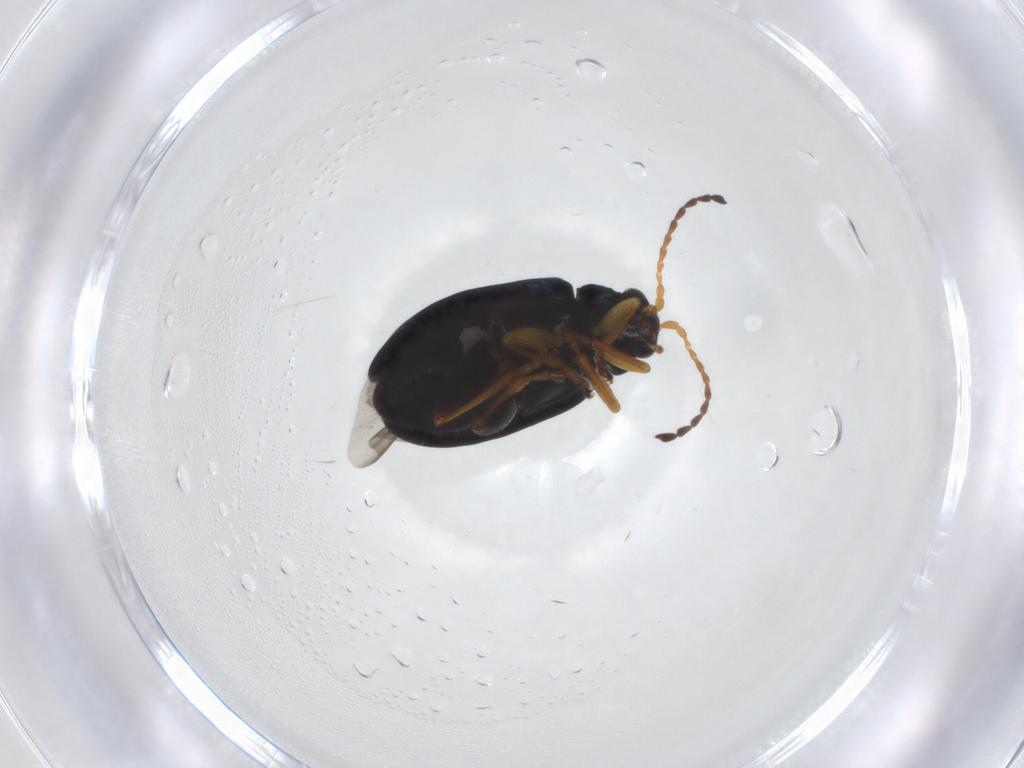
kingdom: Animalia
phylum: Arthropoda
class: Insecta
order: Coleoptera
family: Chrysomelidae
